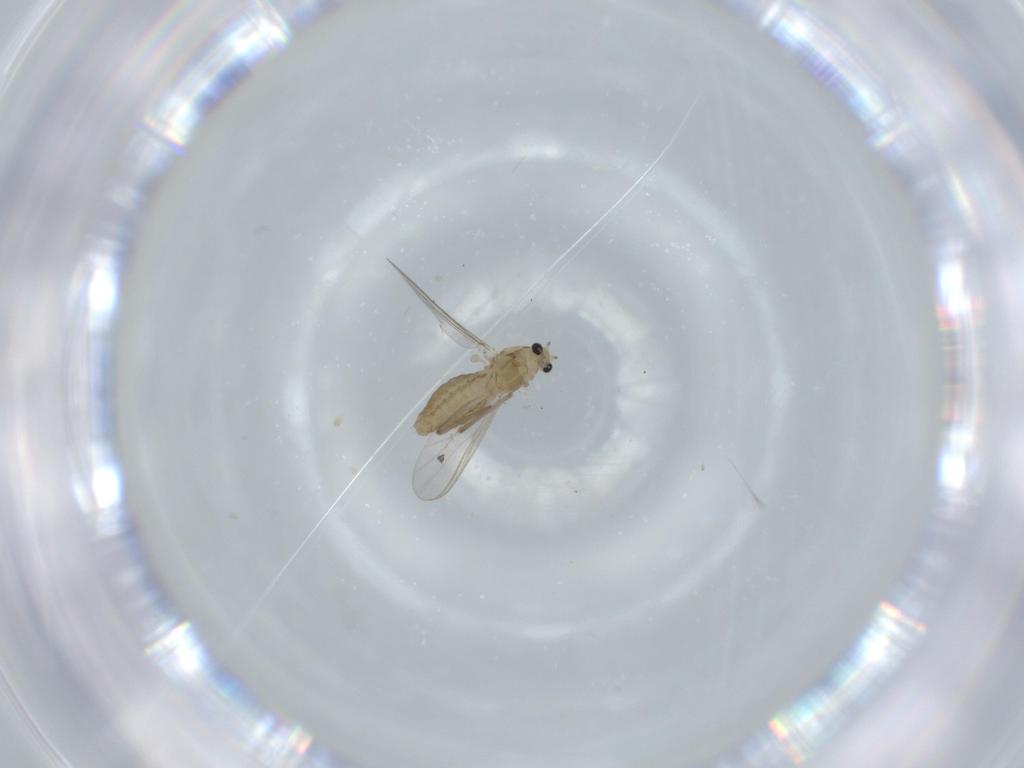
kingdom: Animalia
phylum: Arthropoda
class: Insecta
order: Diptera
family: Chironomidae
